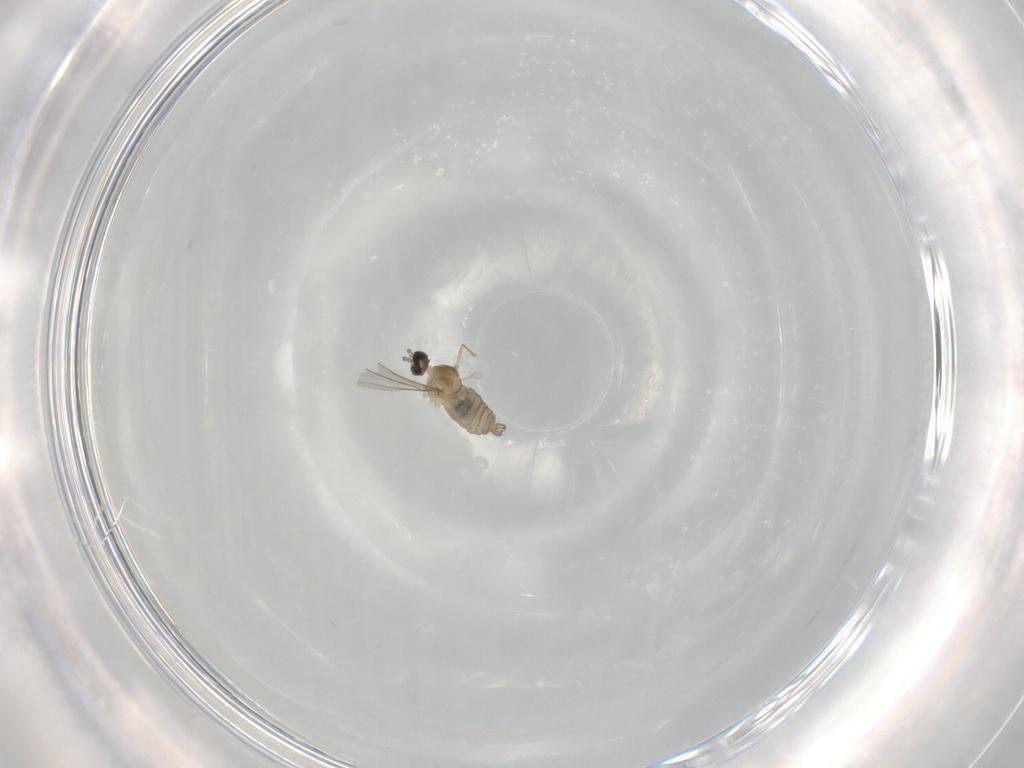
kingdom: Animalia
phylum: Arthropoda
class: Insecta
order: Diptera
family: Cecidomyiidae
